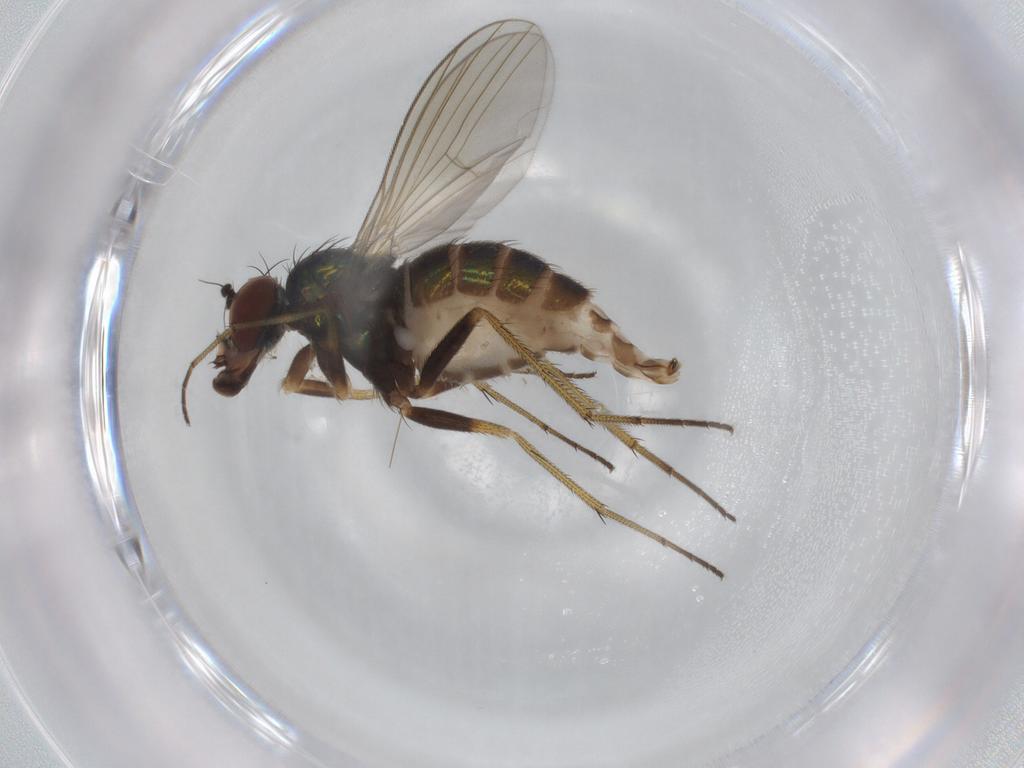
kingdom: Animalia
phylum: Arthropoda
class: Insecta
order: Diptera
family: Dolichopodidae
